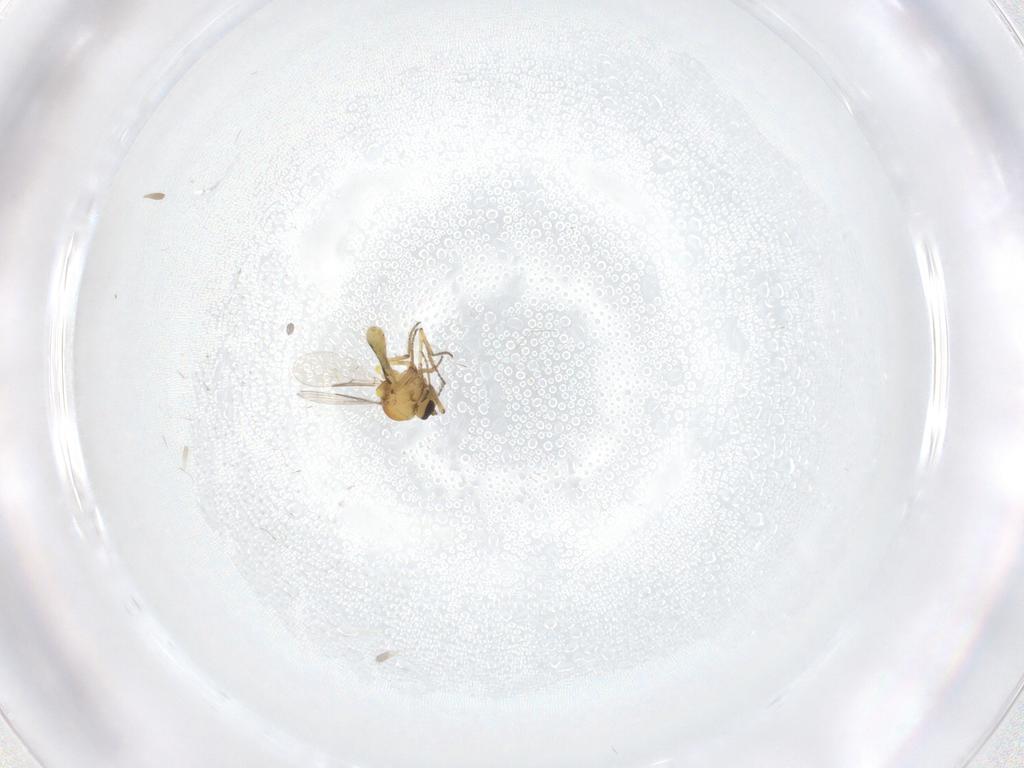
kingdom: Animalia
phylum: Arthropoda
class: Insecta
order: Diptera
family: Ceratopogonidae
